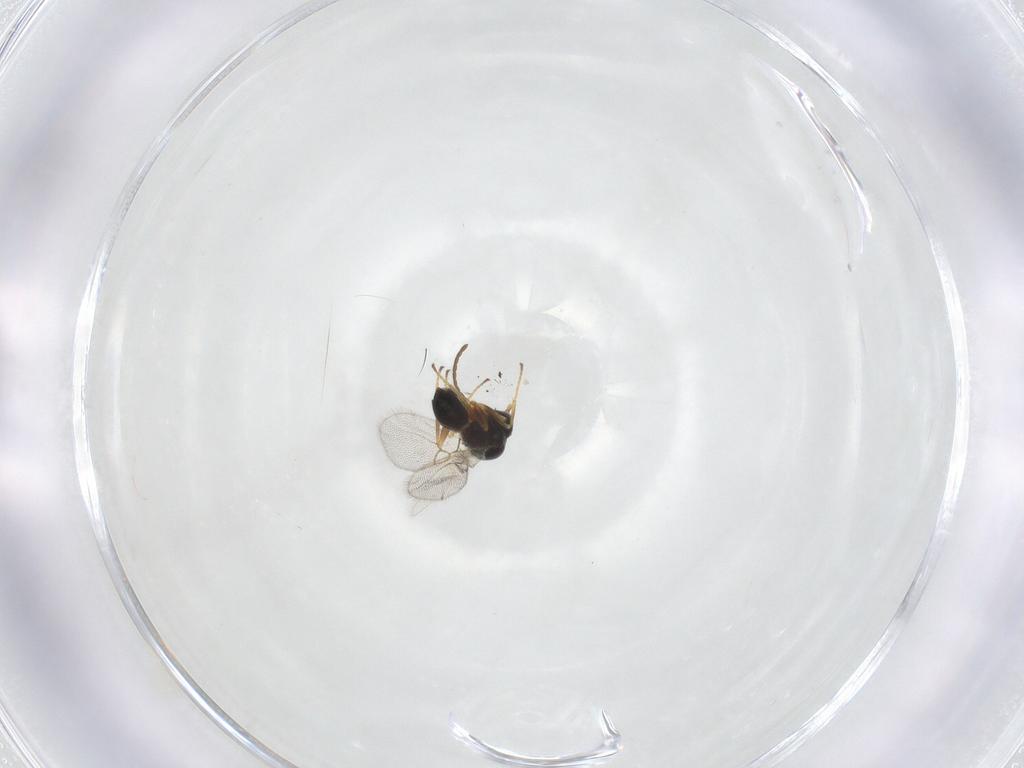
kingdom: Animalia
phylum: Arthropoda
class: Insecta
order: Hymenoptera
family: Figitidae
